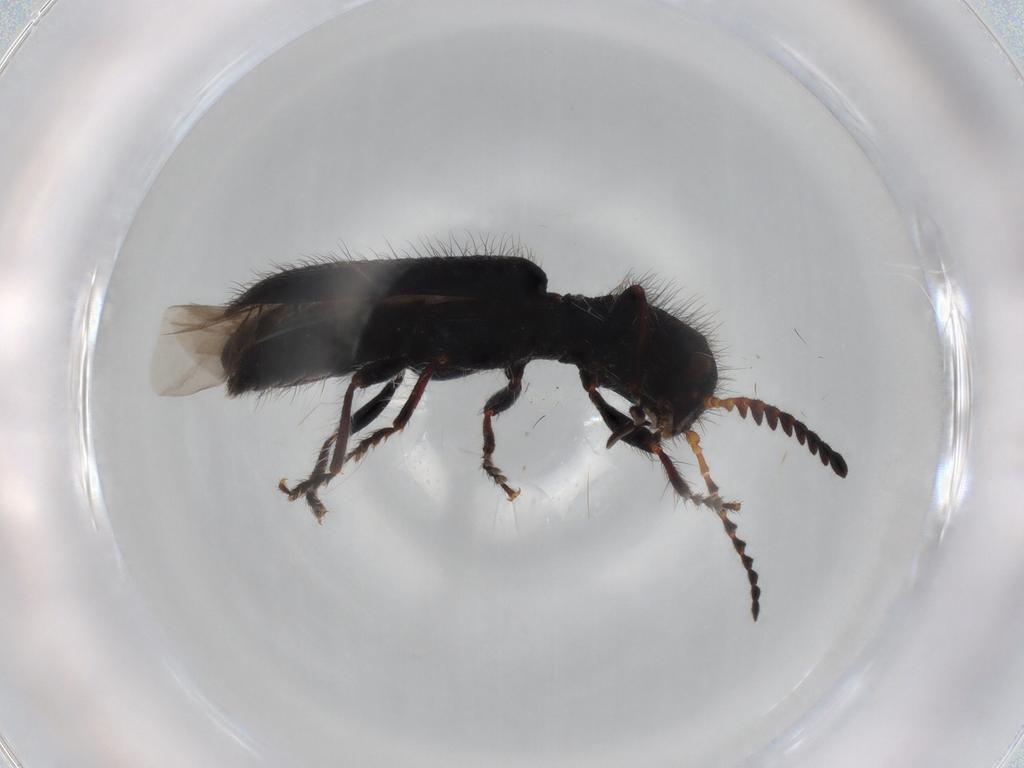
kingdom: Animalia
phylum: Arthropoda
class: Insecta
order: Coleoptera
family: Cleridae
